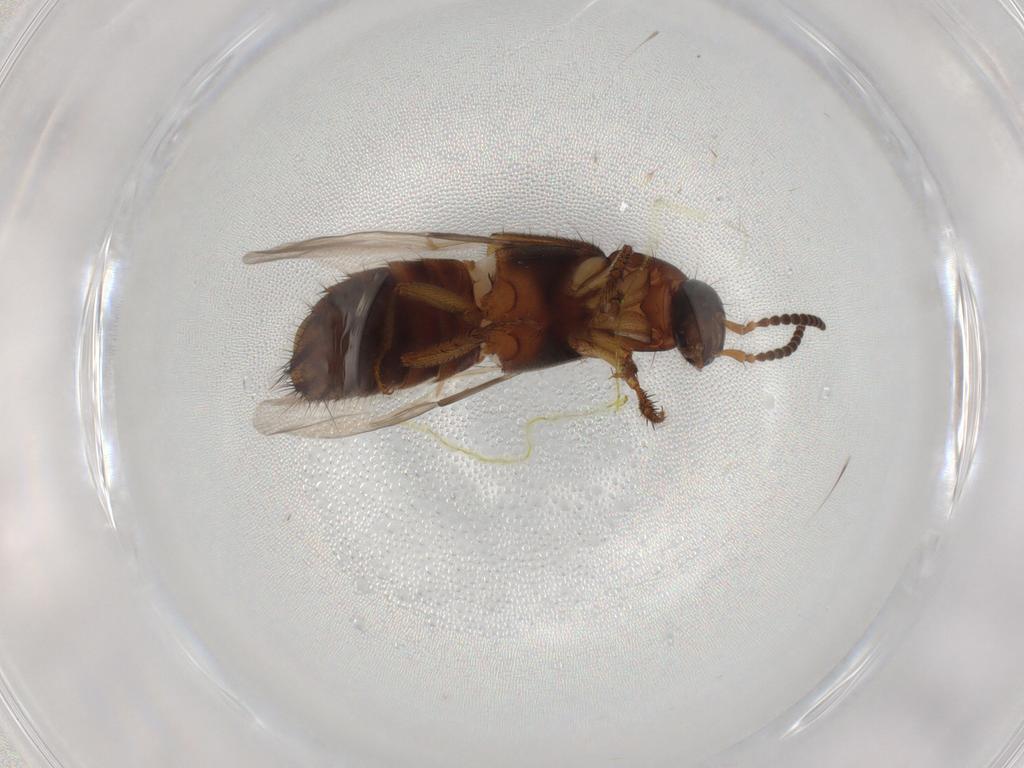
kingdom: Animalia
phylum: Arthropoda
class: Insecta
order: Coleoptera
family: Staphylinidae
